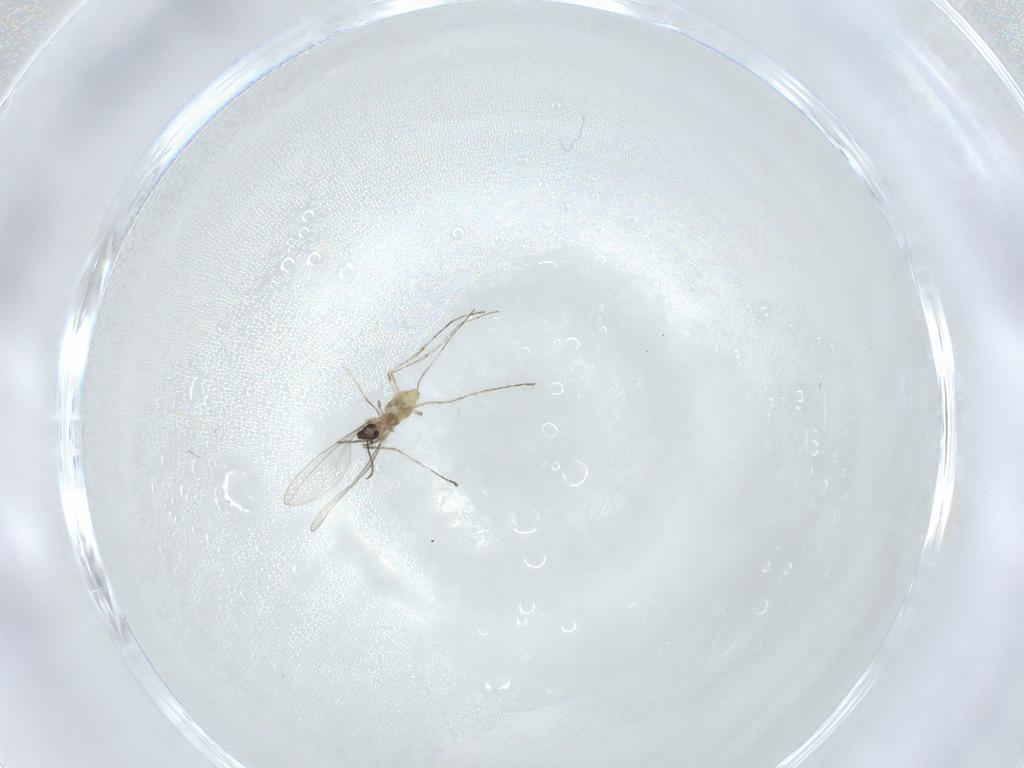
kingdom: Animalia
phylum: Arthropoda
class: Insecta
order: Diptera
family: Cecidomyiidae
